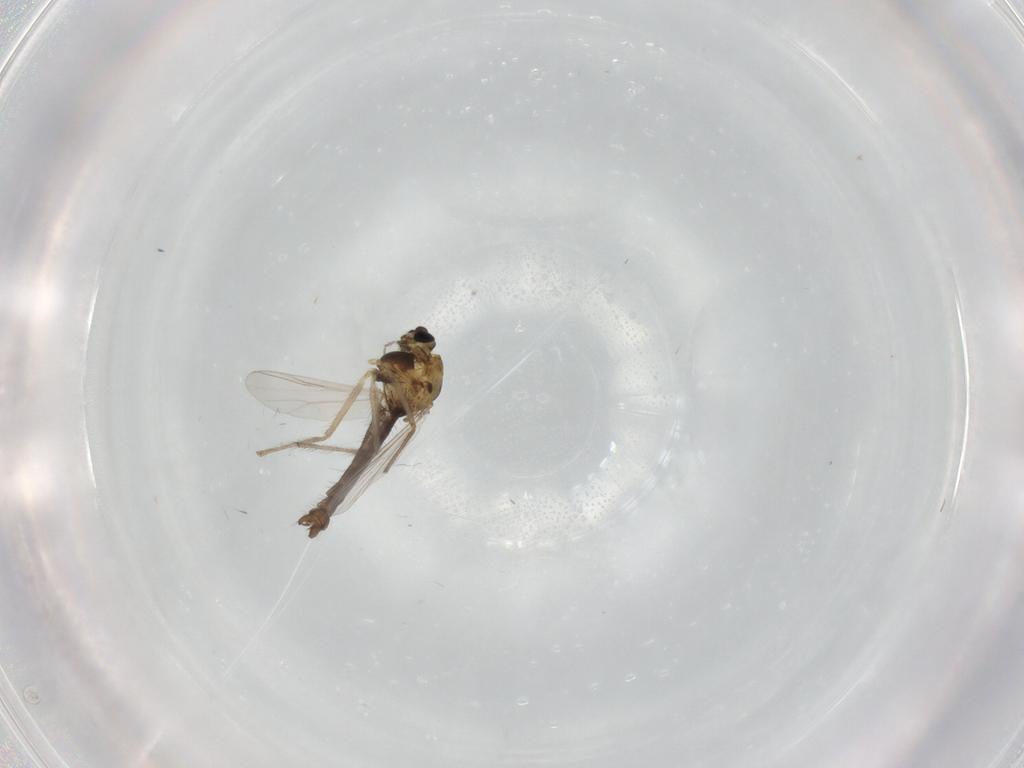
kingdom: Animalia
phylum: Arthropoda
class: Insecta
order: Diptera
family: Chironomidae
